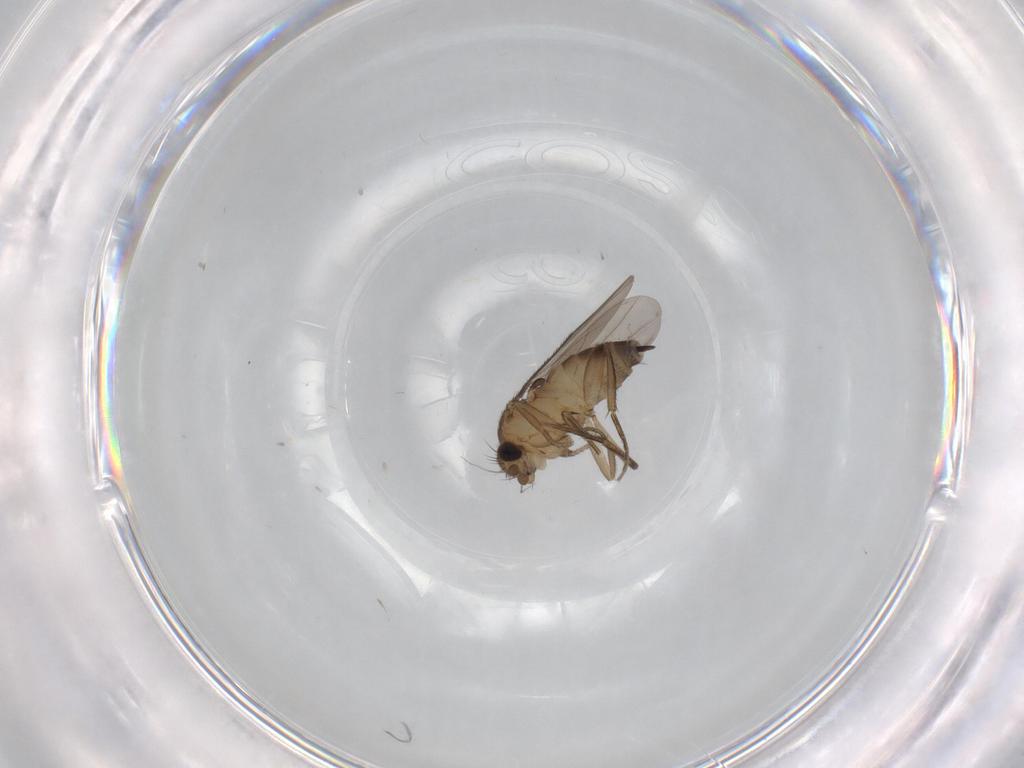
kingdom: Animalia
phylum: Arthropoda
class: Insecta
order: Diptera
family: Phoridae
